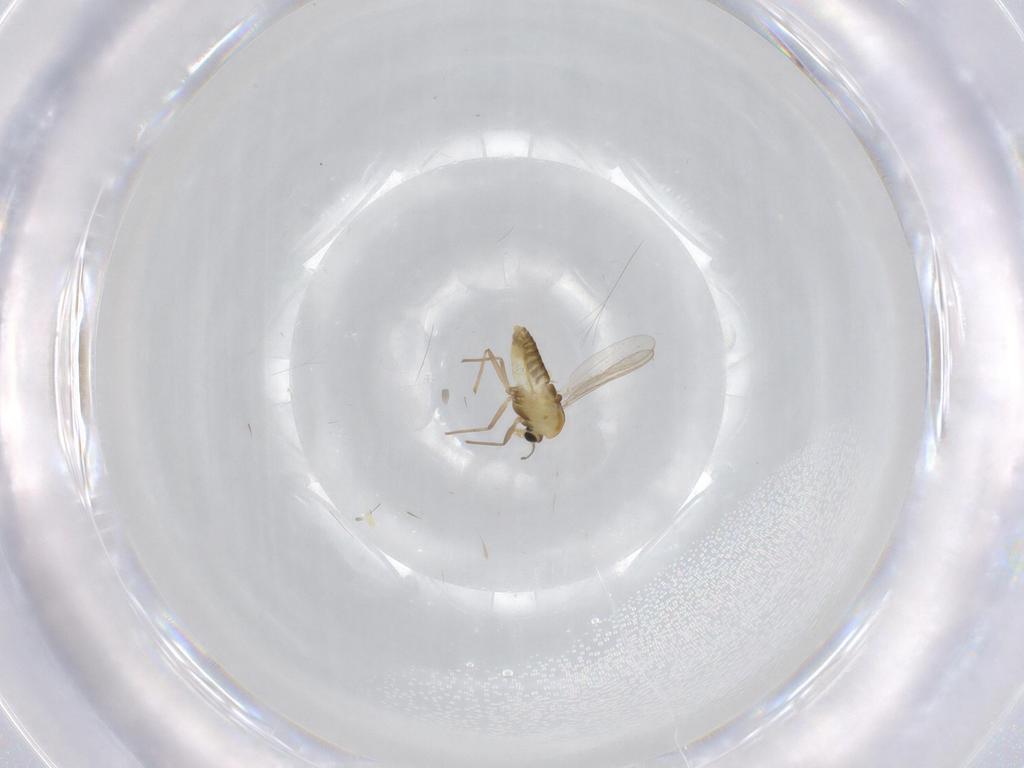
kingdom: Animalia
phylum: Arthropoda
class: Insecta
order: Diptera
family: Chironomidae
